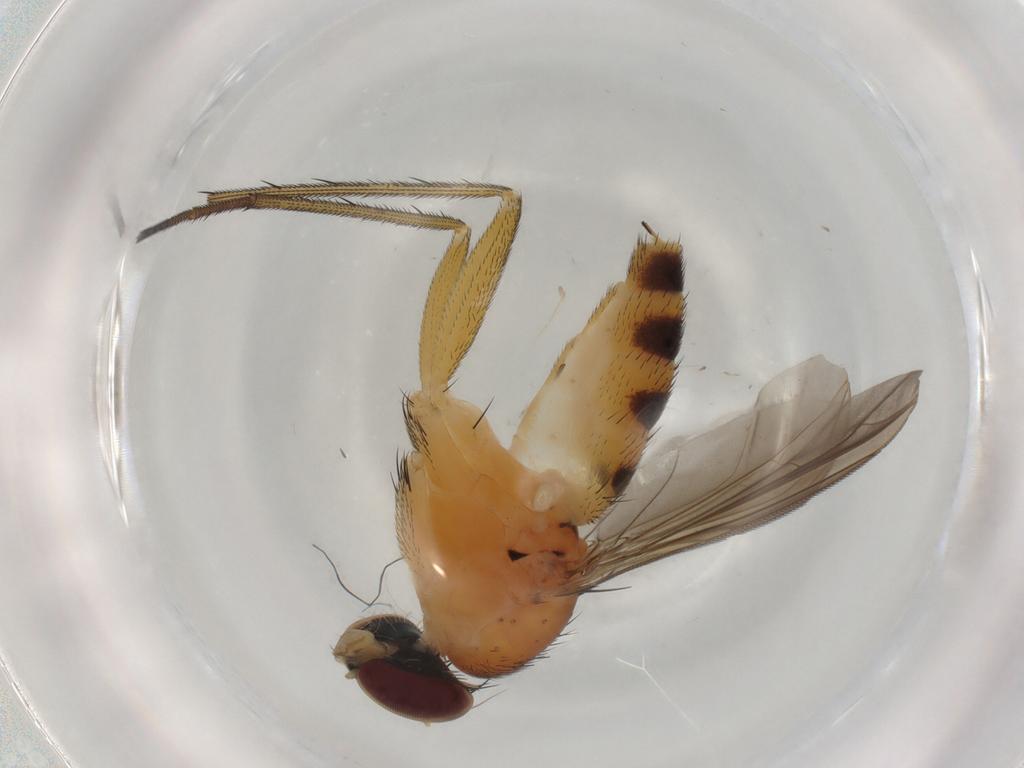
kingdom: Animalia
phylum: Arthropoda
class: Insecta
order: Diptera
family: Dolichopodidae
